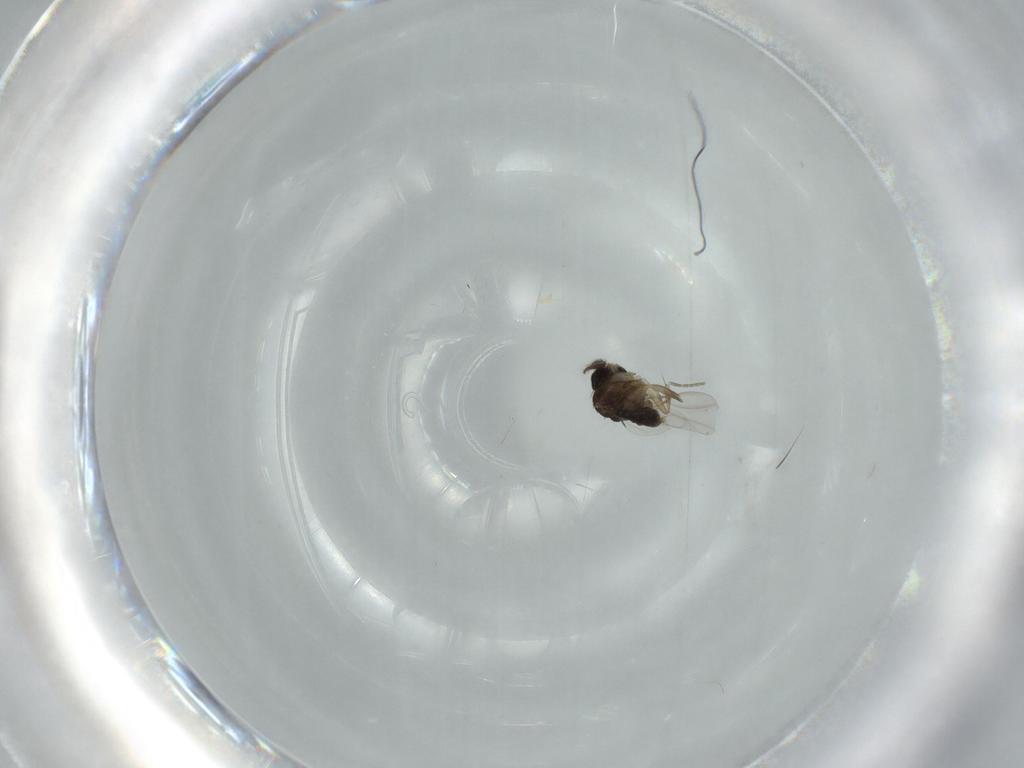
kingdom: Animalia
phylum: Arthropoda
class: Insecta
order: Diptera
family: Phoridae
